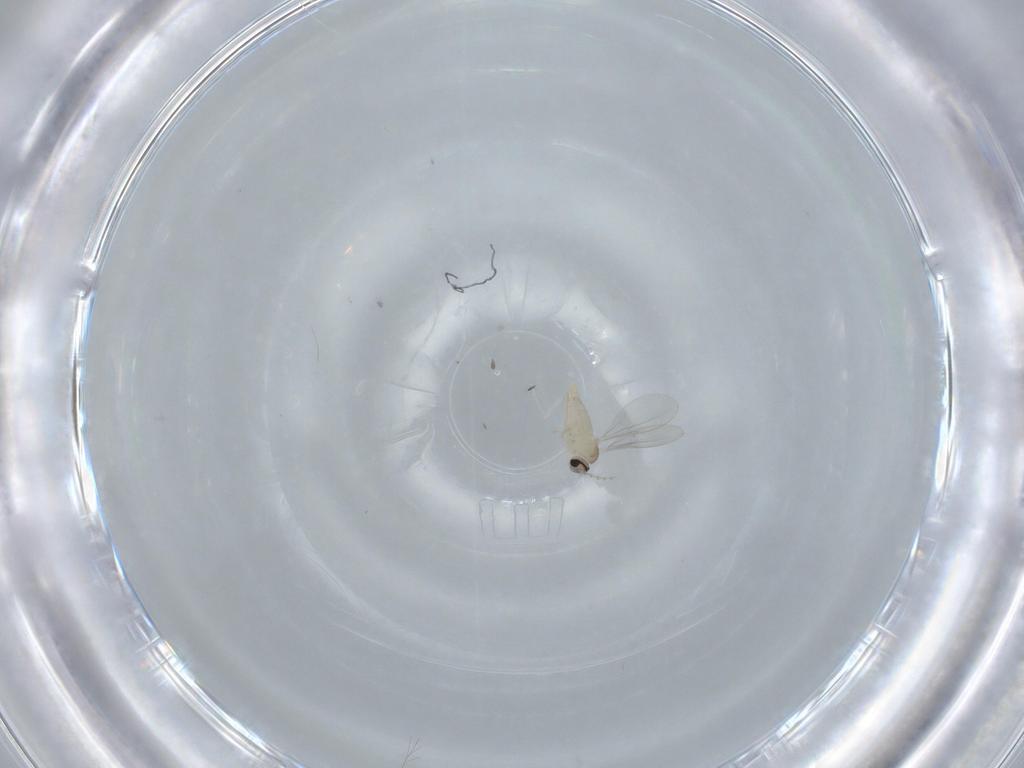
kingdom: Animalia
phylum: Arthropoda
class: Insecta
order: Diptera
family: Cecidomyiidae
